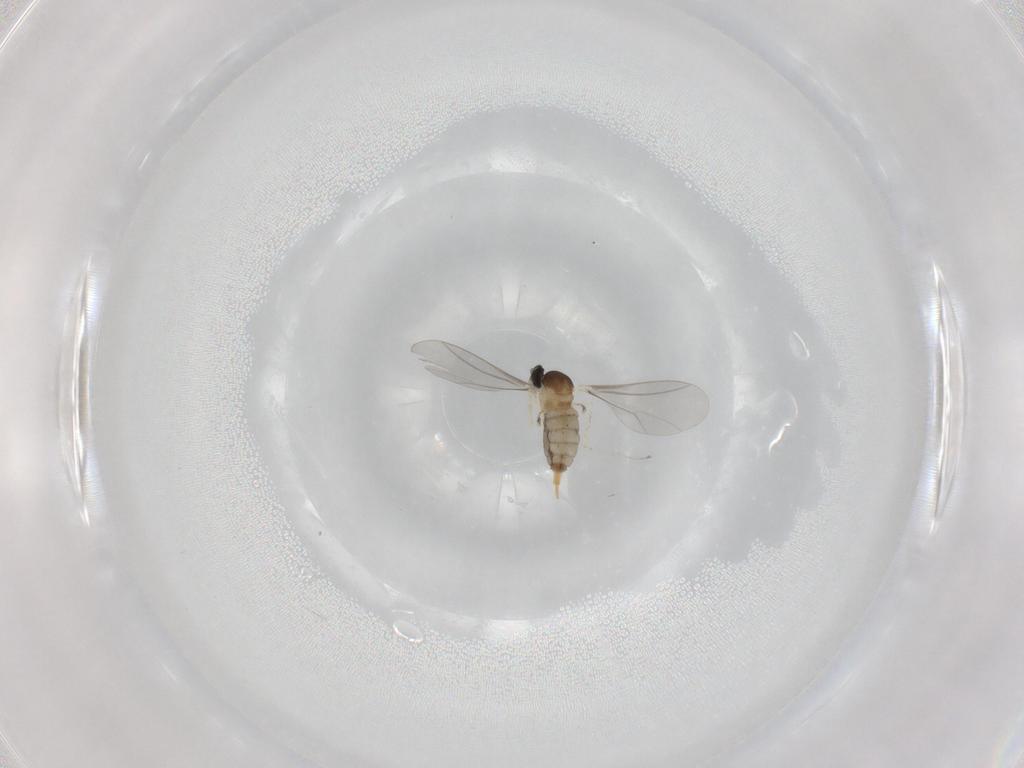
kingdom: Animalia
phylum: Arthropoda
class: Insecta
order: Diptera
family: Cecidomyiidae
